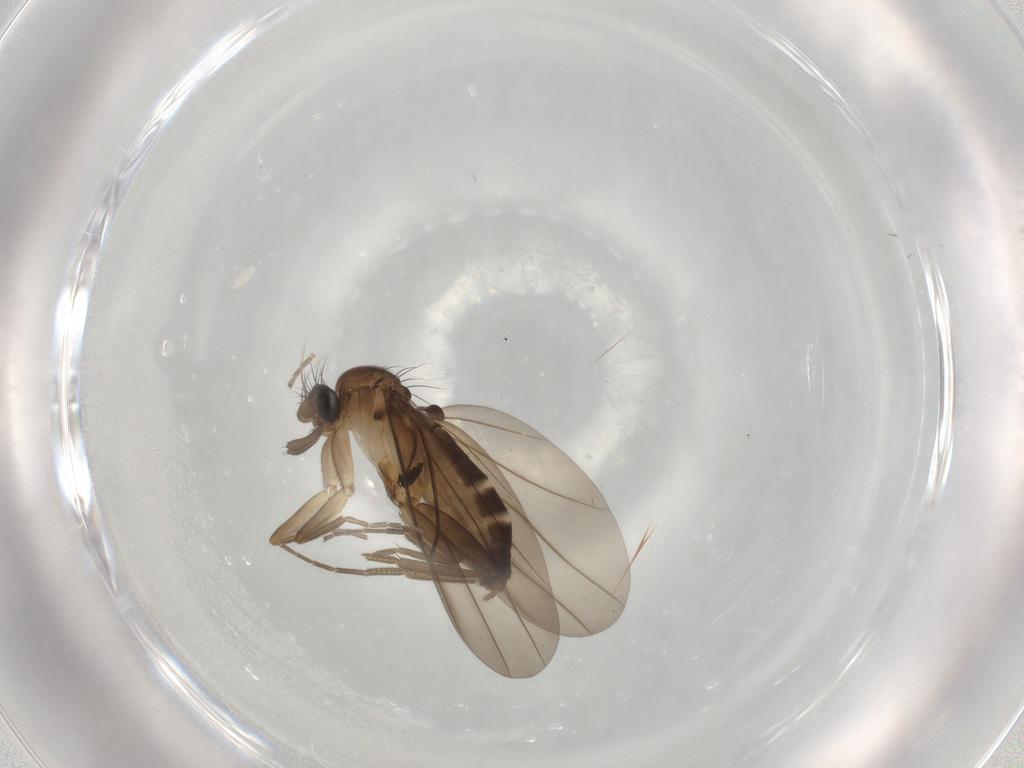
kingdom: Animalia
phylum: Arthropoda
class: Insecta
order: Diptera
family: Phoridae
